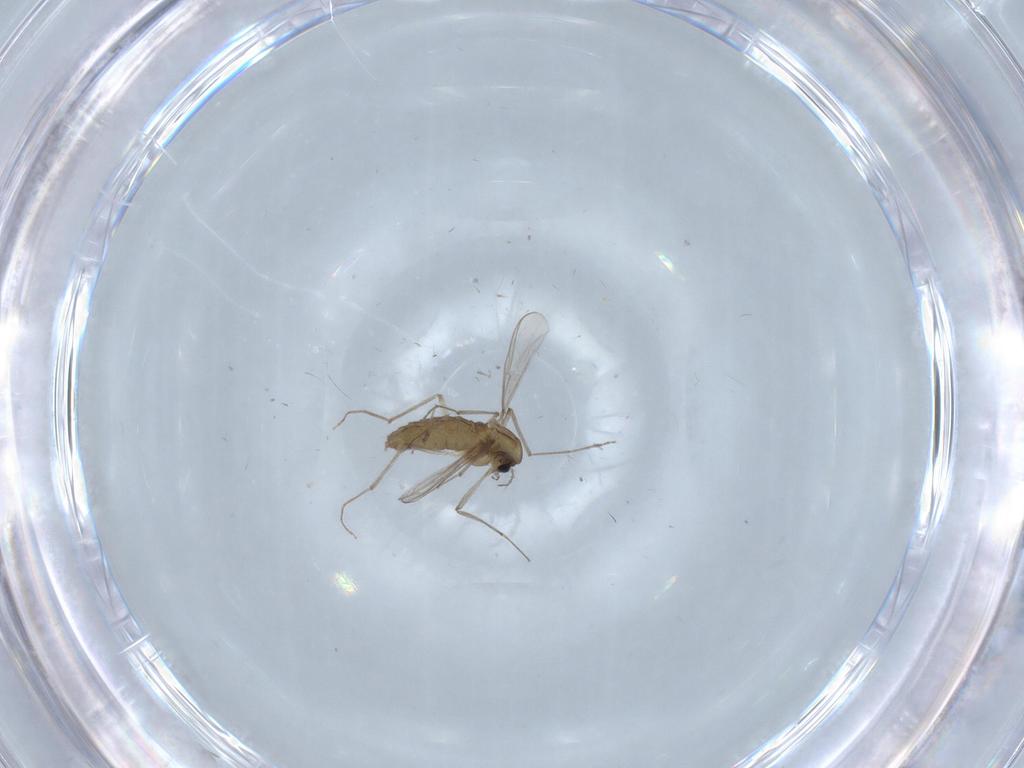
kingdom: Animalia
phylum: Arthropoda
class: Insecta
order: Diptera
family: Chironomidae
